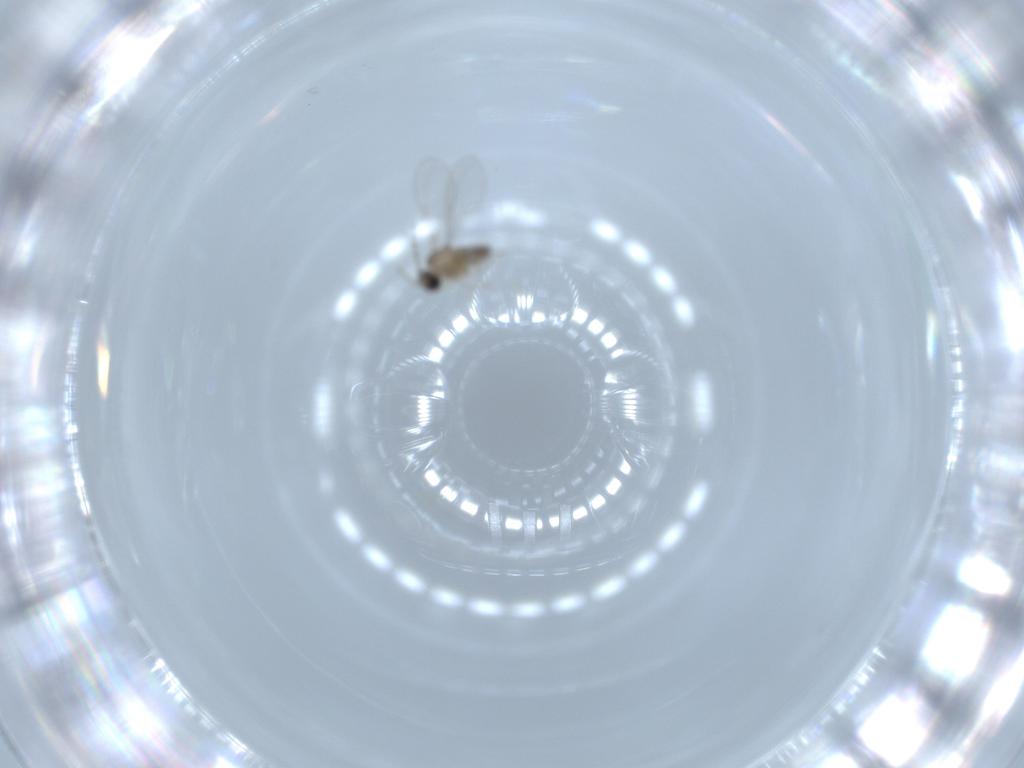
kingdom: Animalia
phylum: Arthropoda
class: Insecta
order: Diptera
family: Cecidomyiidae
